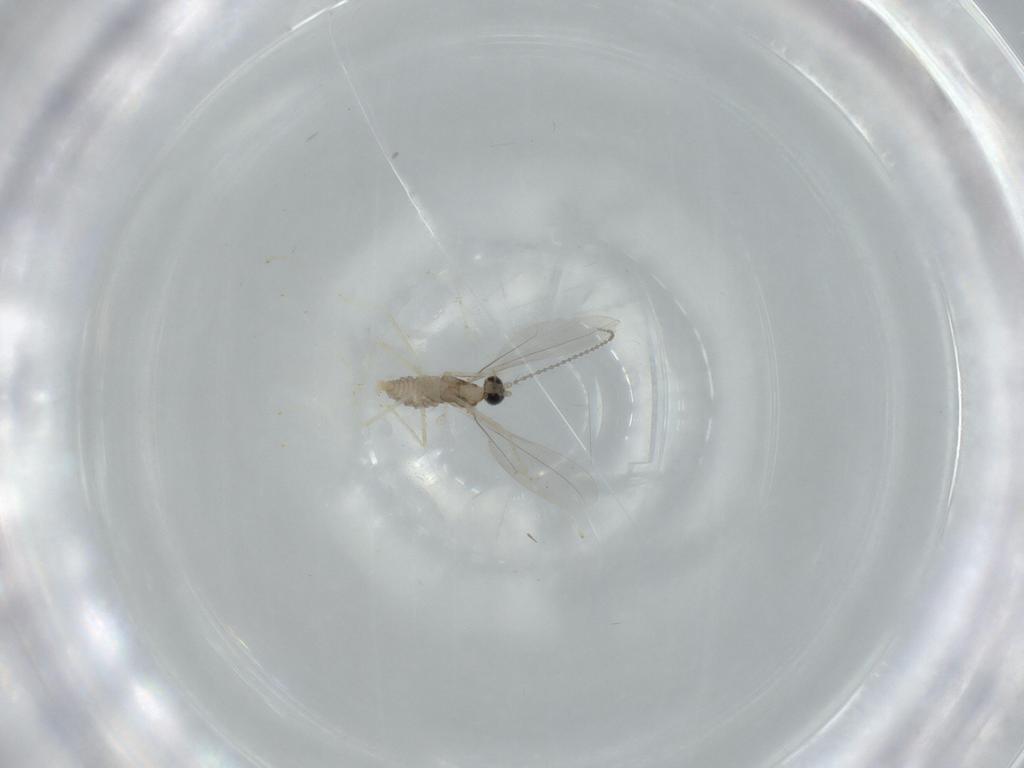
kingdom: Animalia
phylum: Arthropoda
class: Insecta
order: Diptera
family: Cecidomyiidae
